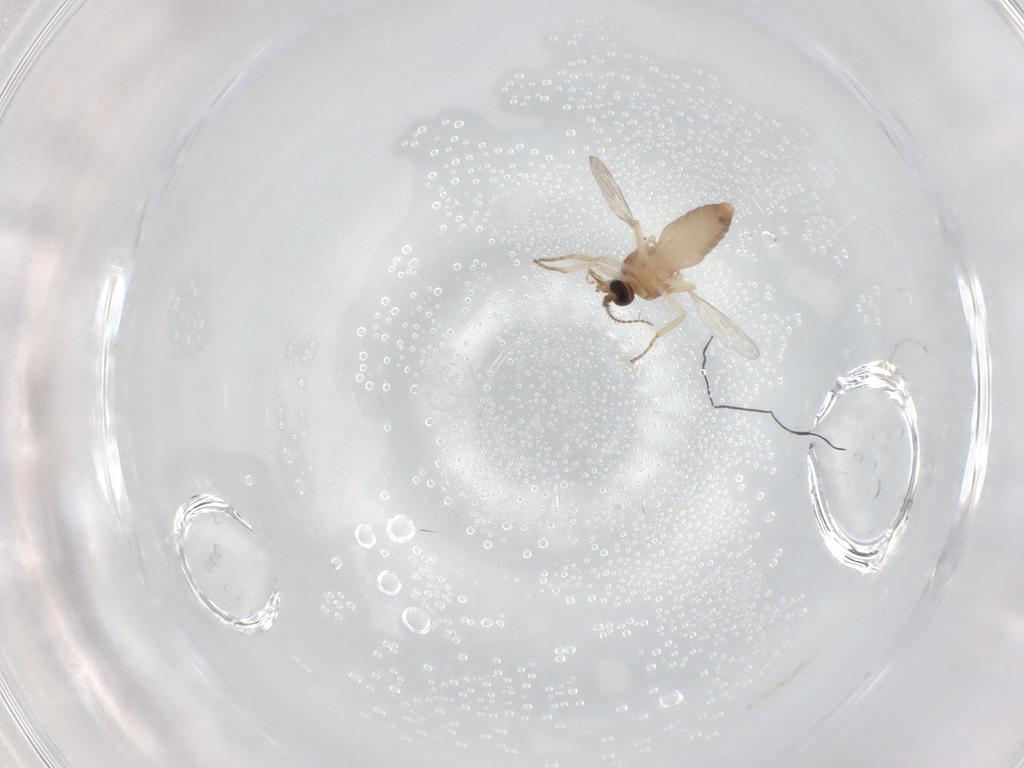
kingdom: Animalia
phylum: Arthropoda
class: Insecta
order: Diptera
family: Ceratopogonidae
